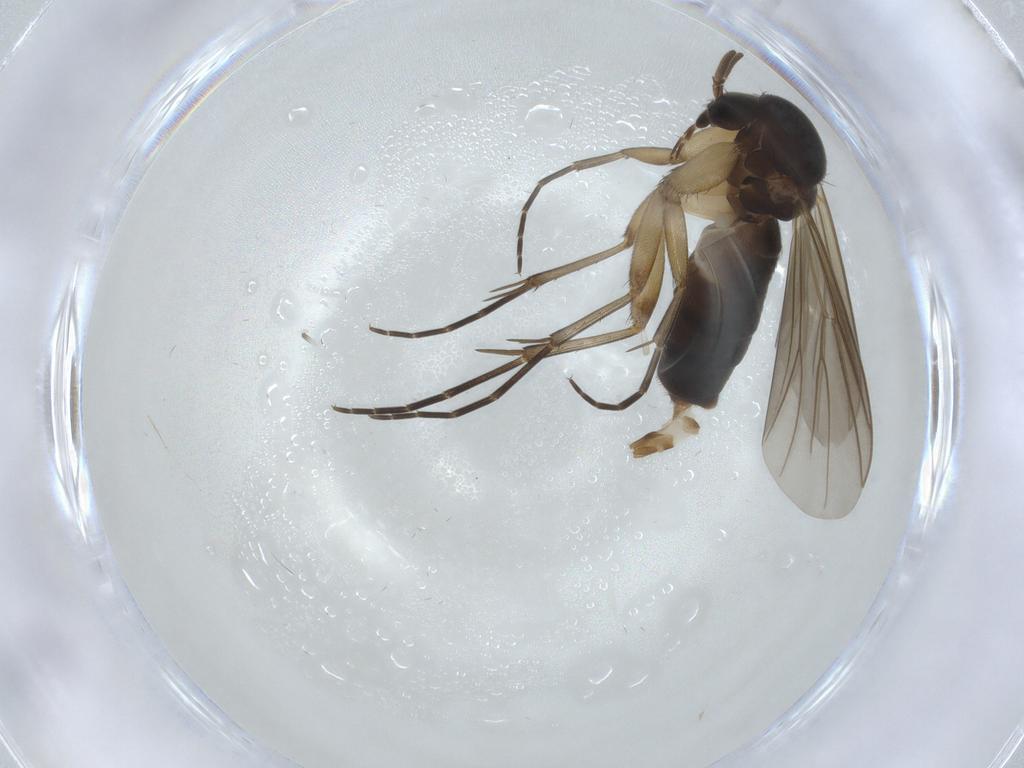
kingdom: Animalia
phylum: Arthropoda
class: Insecta
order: Diptera
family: Mycetophilidae
